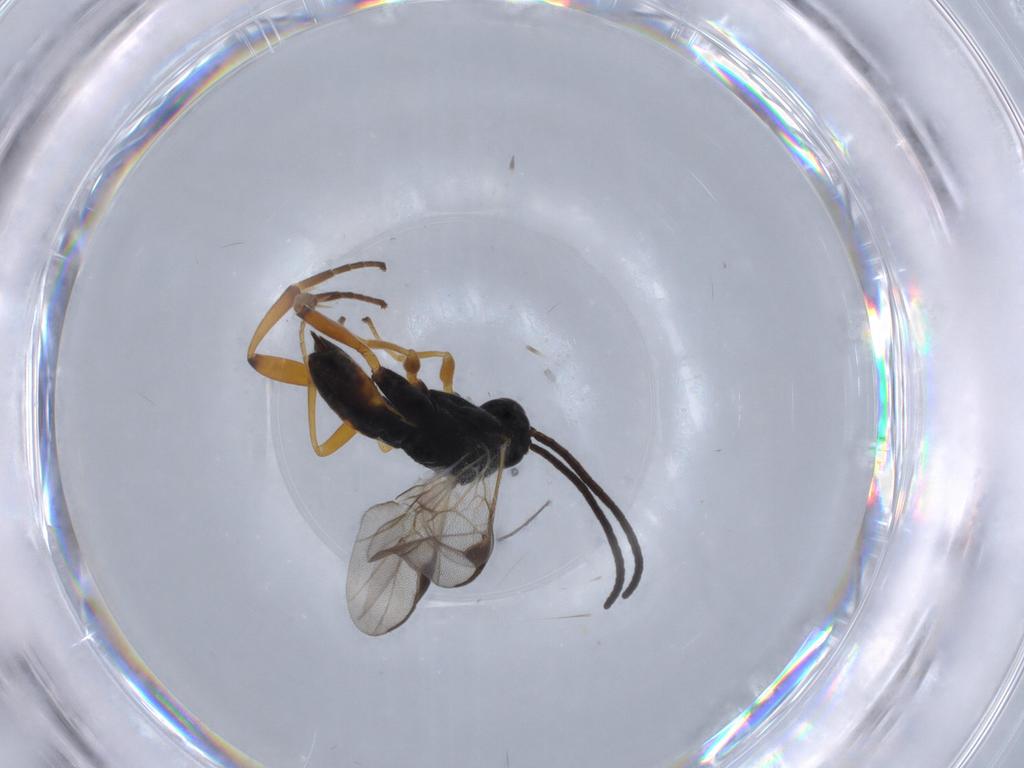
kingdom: Animalia
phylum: Arthropoda
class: Insecta
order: Hymenoptera
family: Braconidae
